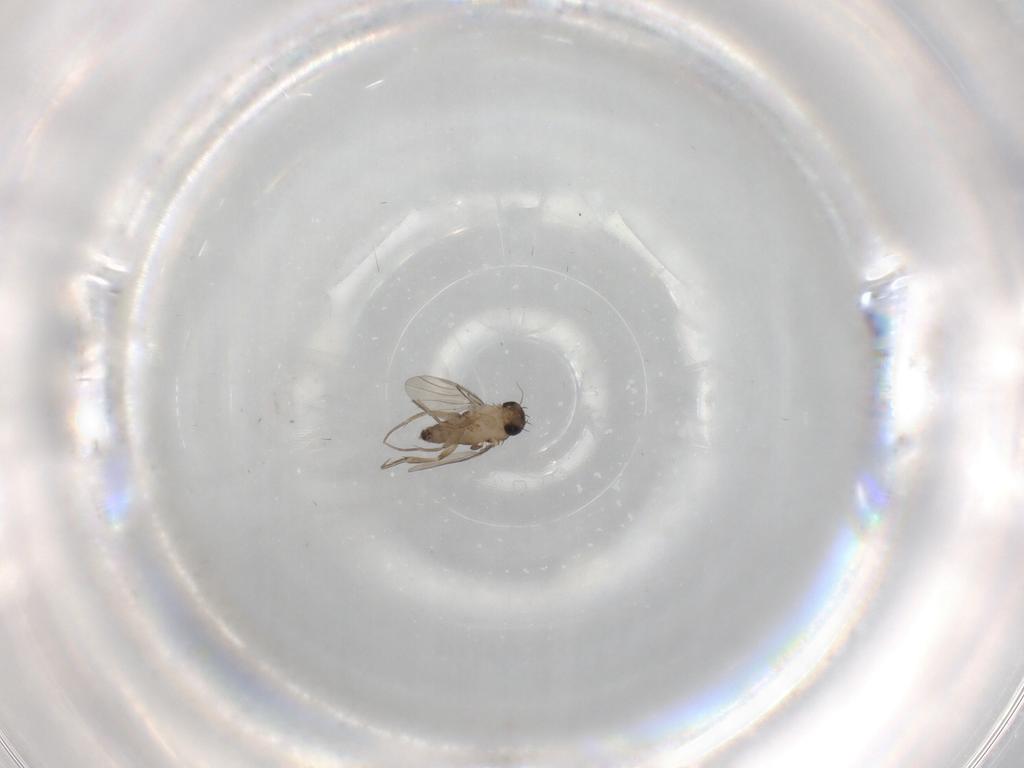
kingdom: Animalia
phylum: Arthropoda
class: Insecta
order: Diptera
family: Phoridae
